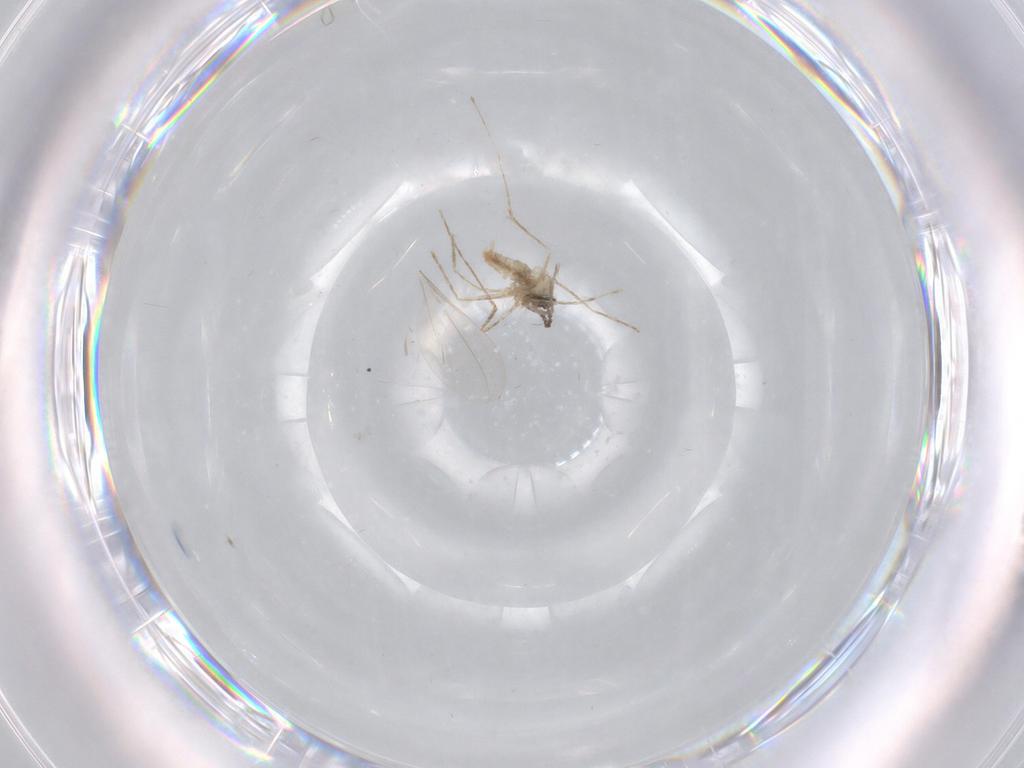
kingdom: Animalia
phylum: Arthropoda
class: Insecta
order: Diptera
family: Cecidomyiidae
